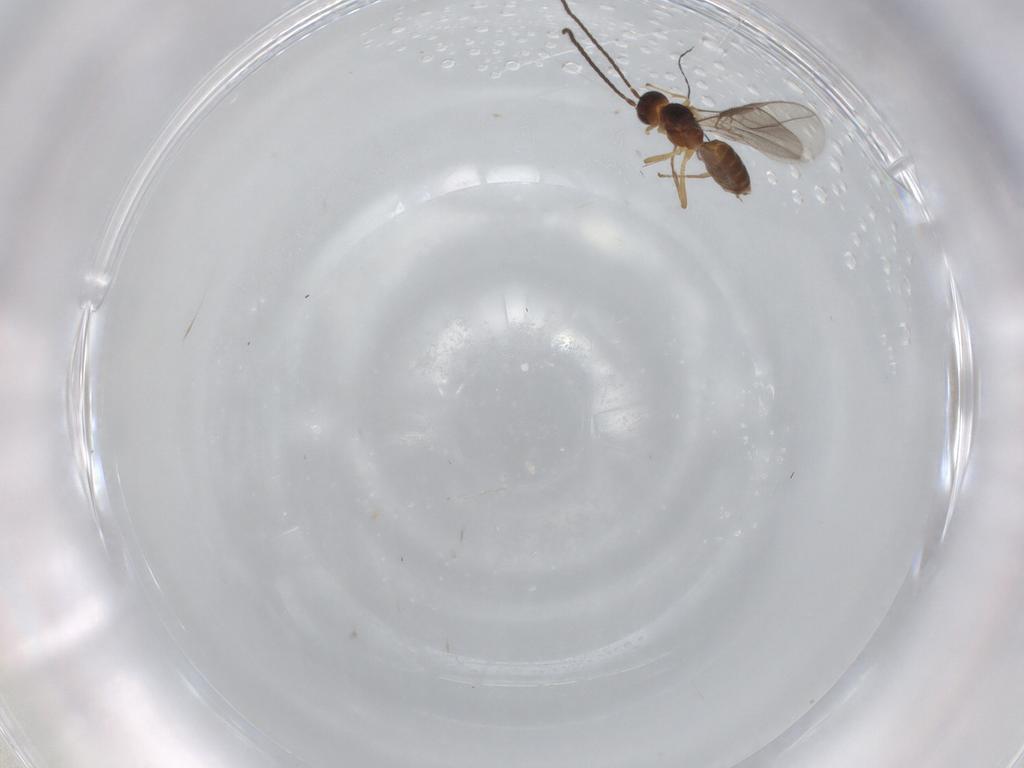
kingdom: Animalia
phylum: Arthropoda
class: Insecta
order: Hymenoptera
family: Braconidae
